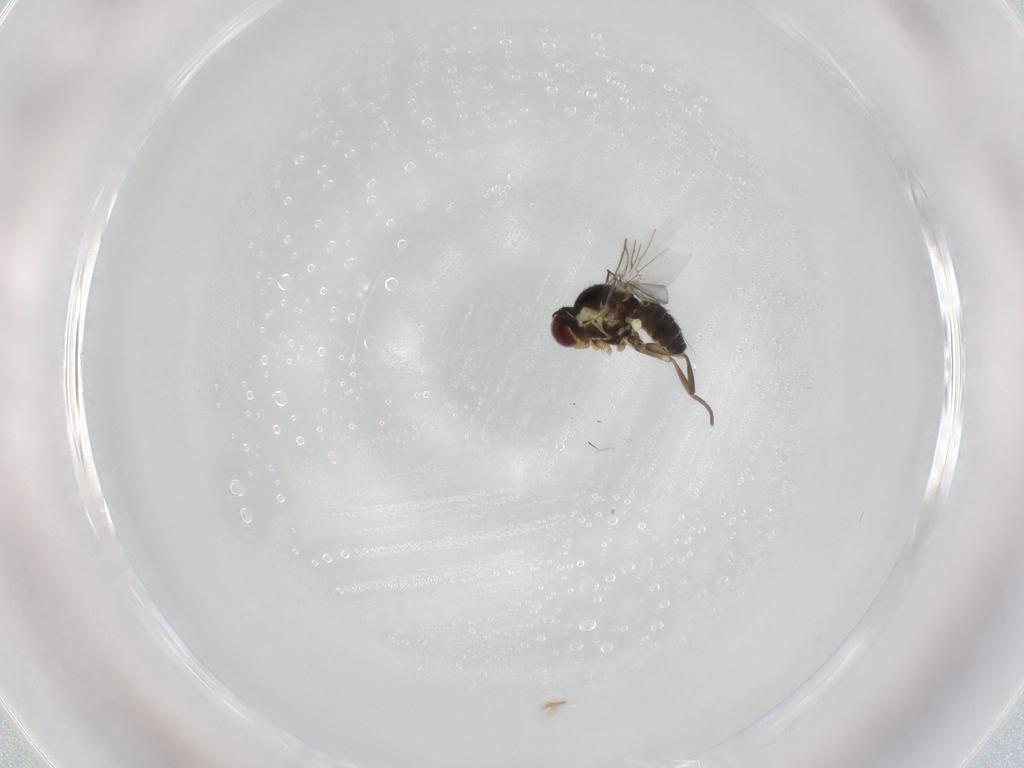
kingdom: Animalia
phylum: Arthropoda
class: Insecta
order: Diptera
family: Agromyzidae
